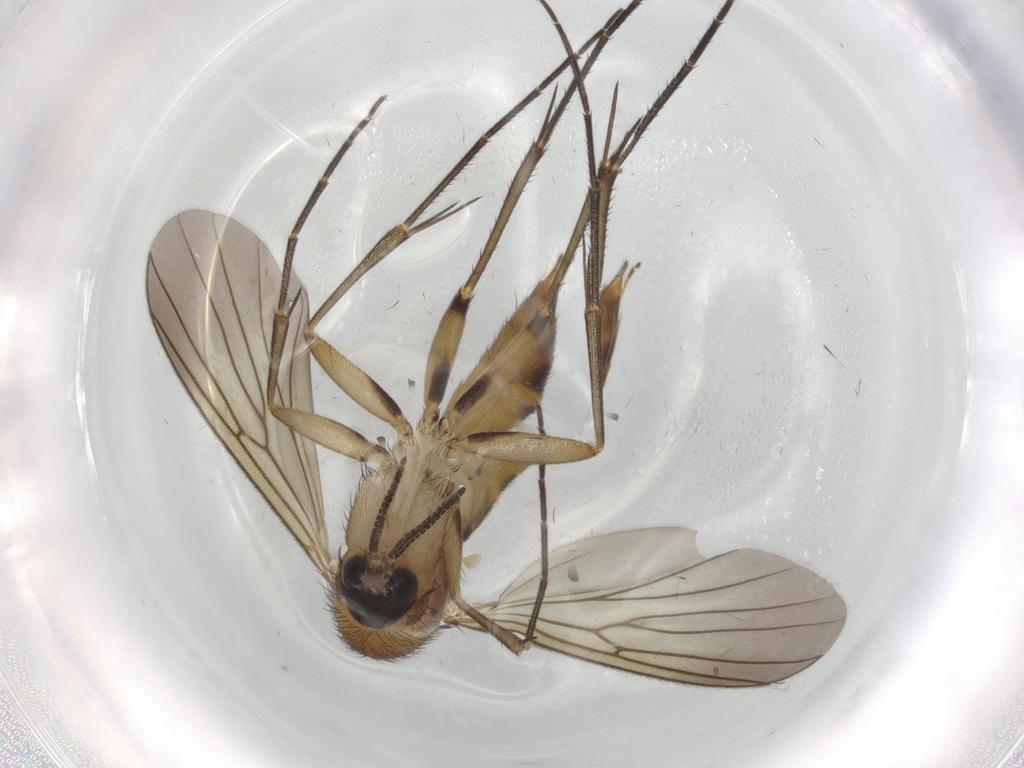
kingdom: Animalia
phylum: Arthropoda
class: Insecta
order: Diptera
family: Mycetophilidae
